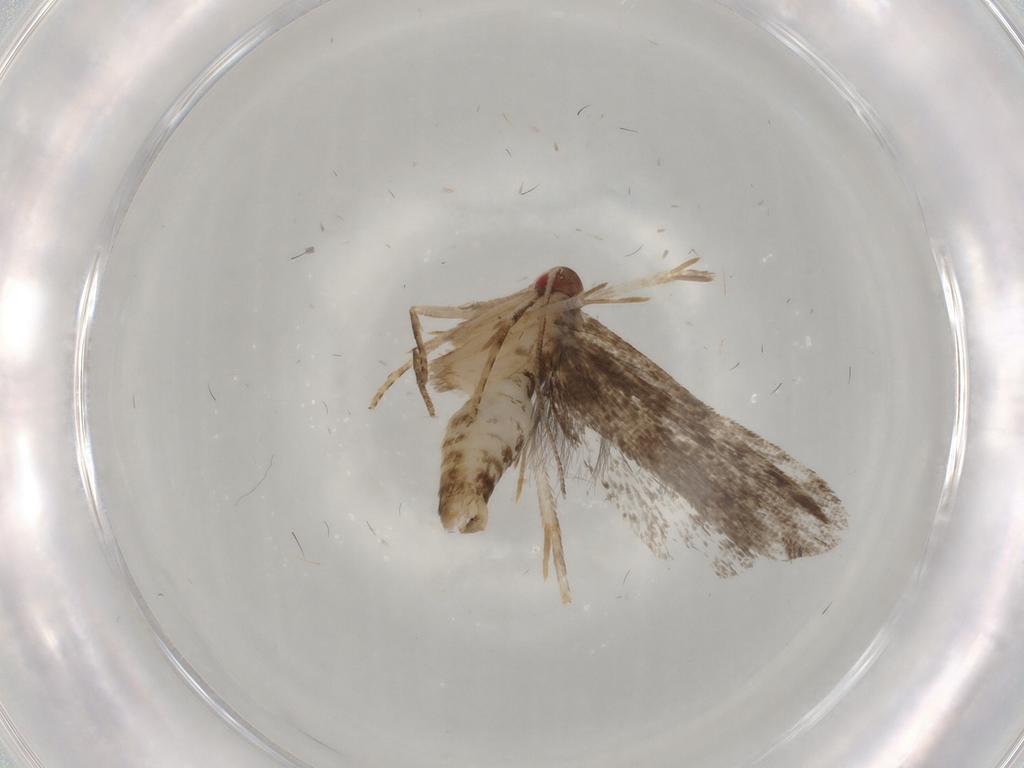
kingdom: Animalia
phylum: Arthropoda
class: Insecta
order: Lepidoptera
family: Gelechiidae
